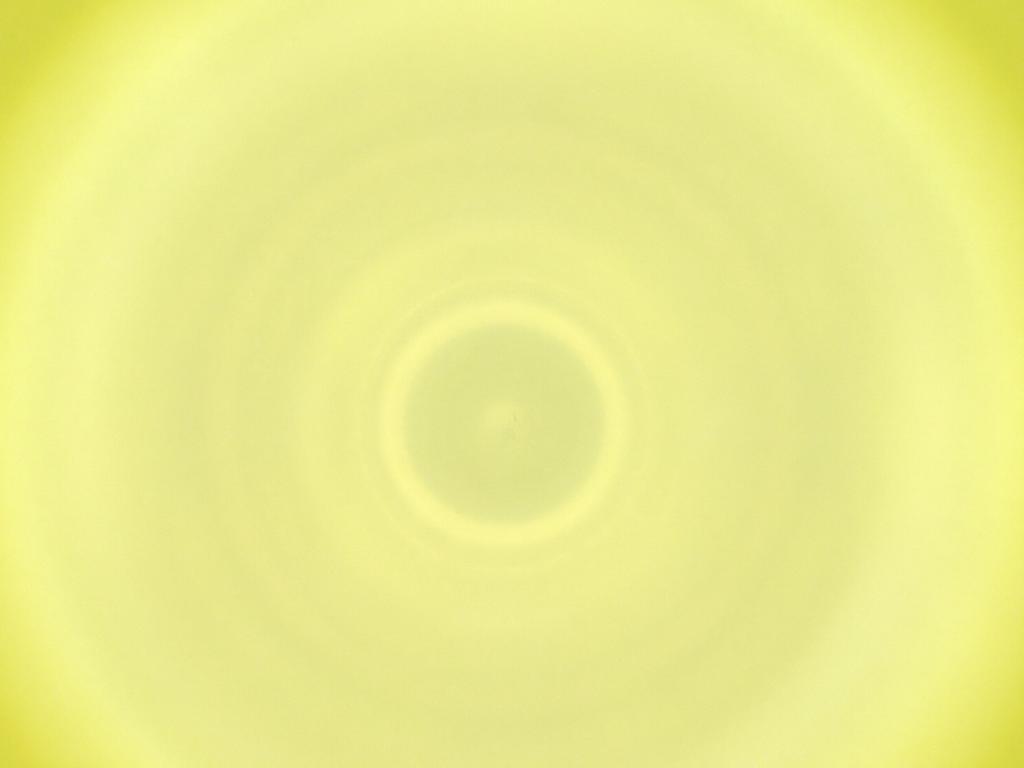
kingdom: Animalia
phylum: Arthropoda
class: Insecta
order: Diptera
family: Cecidomyiidae
